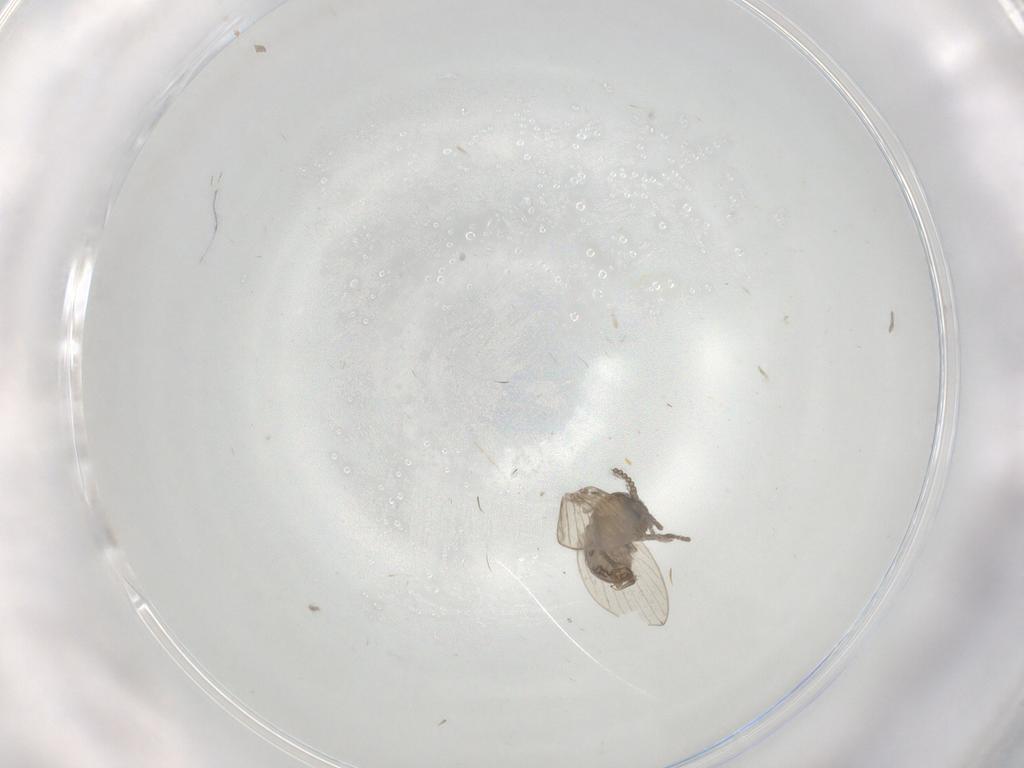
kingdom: Animalia
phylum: Arthropoda
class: Insecta
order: Diptera
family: Psychodidae
